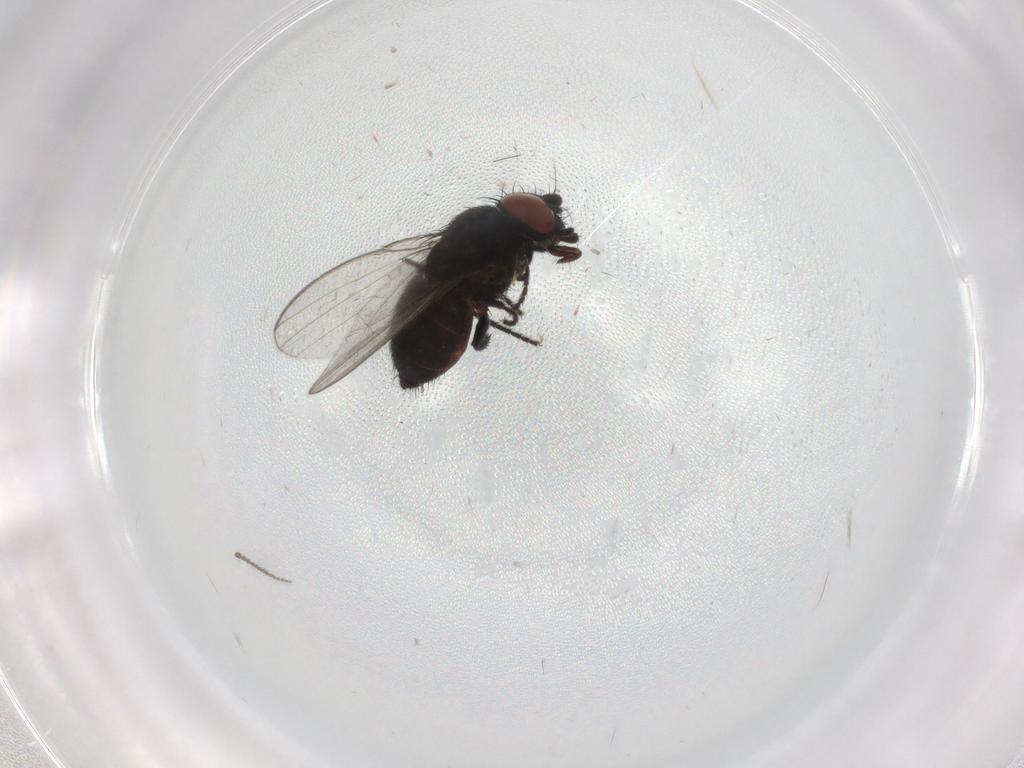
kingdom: Animalia
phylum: Arthropoda
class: Insecta
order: Diptera
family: Milichiidae
